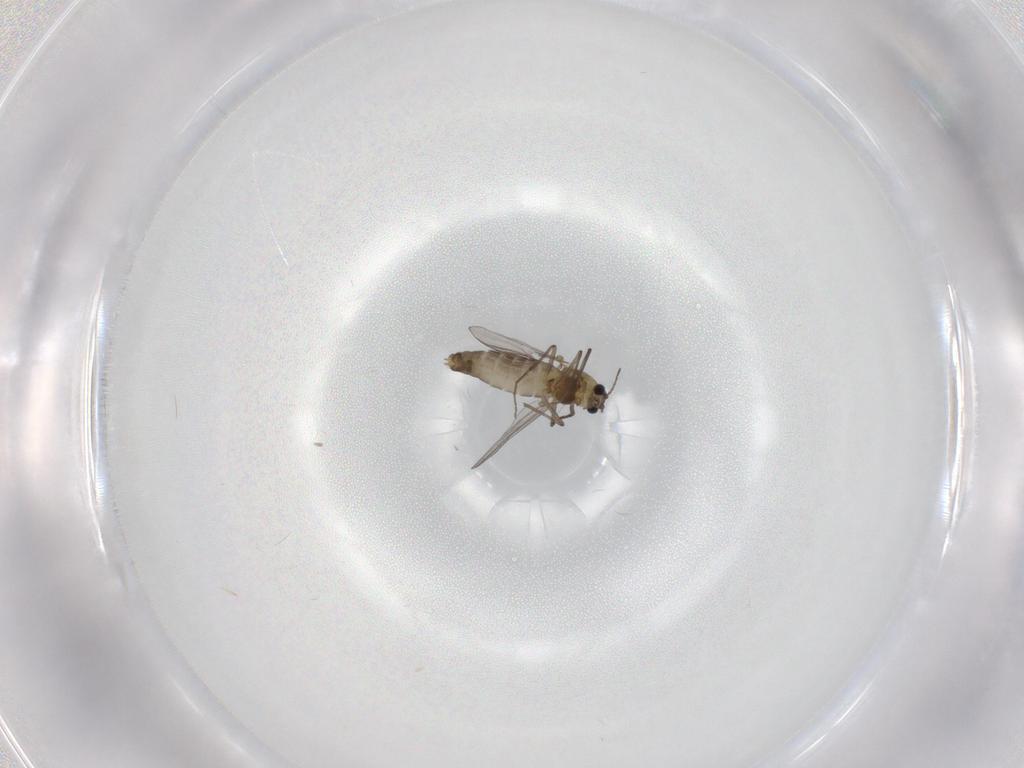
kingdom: Animalia
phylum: Arthropoda
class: Insecta
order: Diptera
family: Chironomidae
